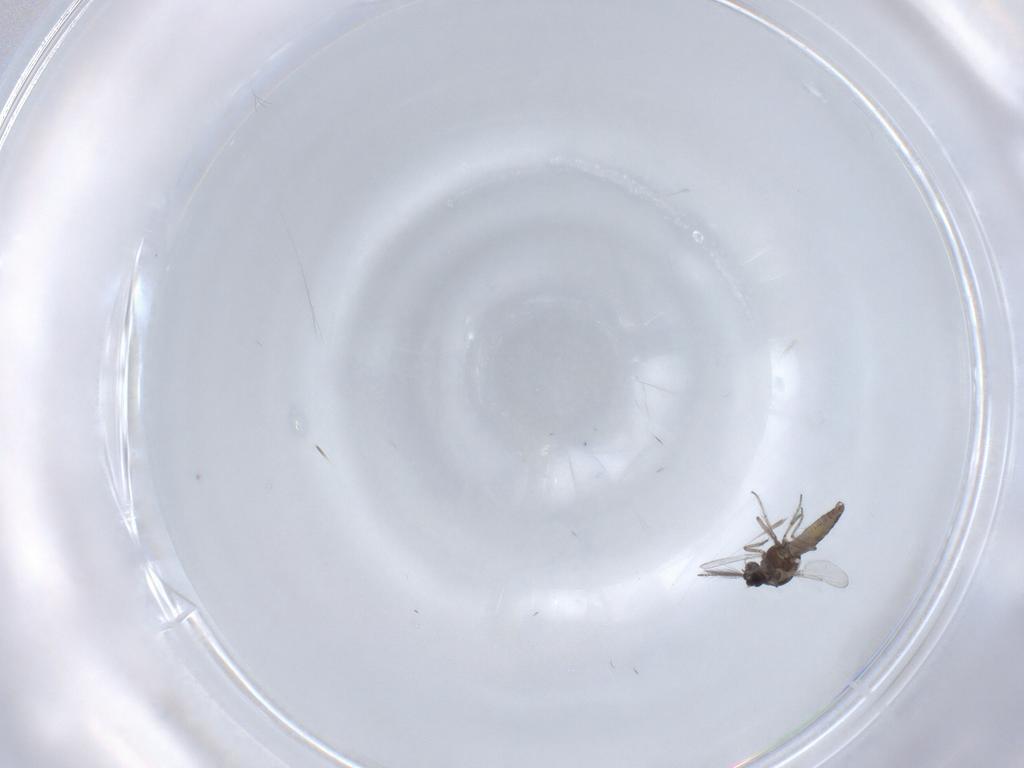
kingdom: Animalia
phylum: Arthropoda
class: Insecta
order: Diptera
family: Ceratopogonidae
